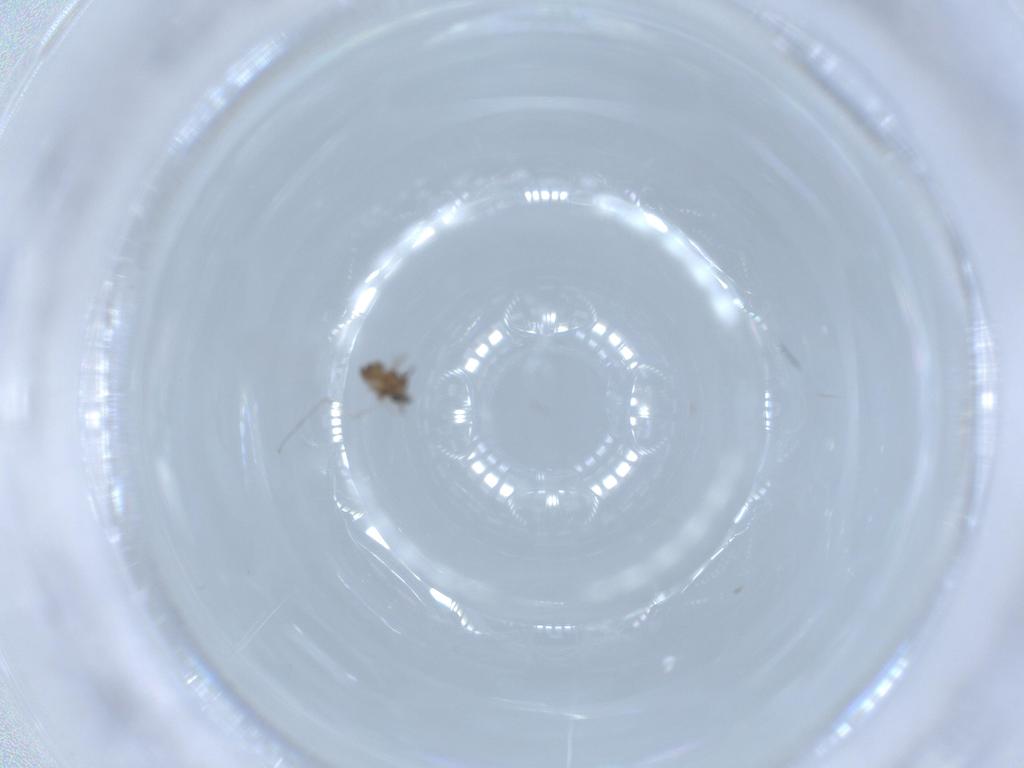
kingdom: Animalia
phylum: Arthropoda
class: Insecta
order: Diptera
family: Cecidomyiidae
